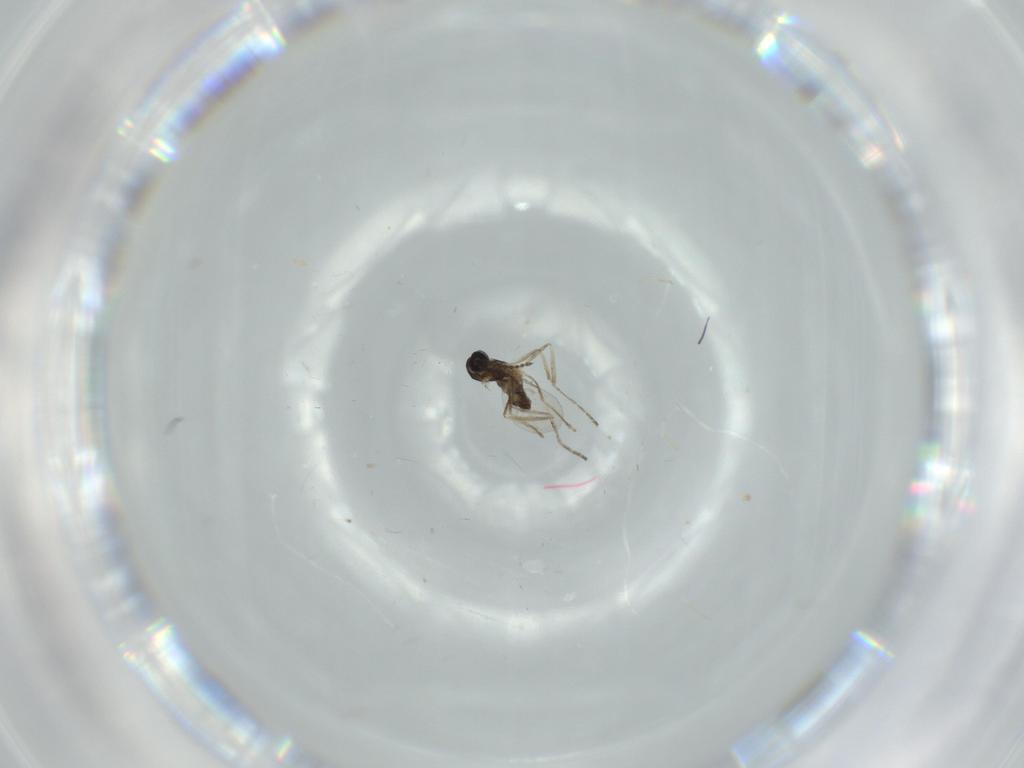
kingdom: Animalia
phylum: Arthropoda
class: Insecta
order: Diptera
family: Cecidomyiidae
